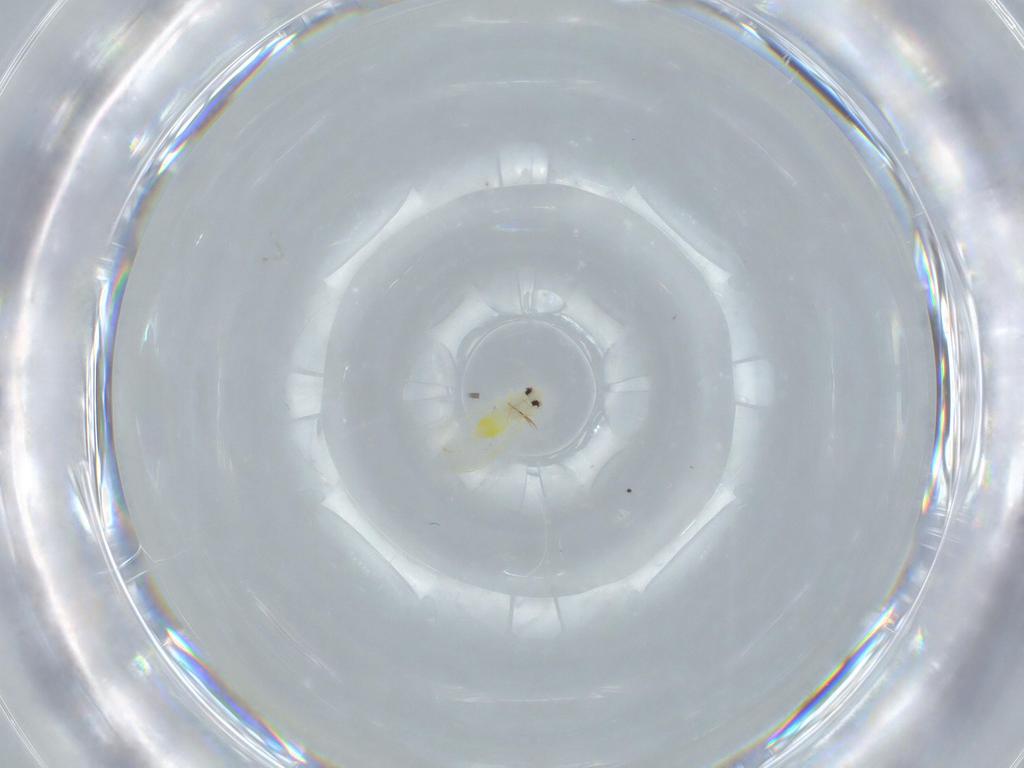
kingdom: Animalia
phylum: Arthropoda
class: Insecta
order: Hemiptera
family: Aleyrodidae
